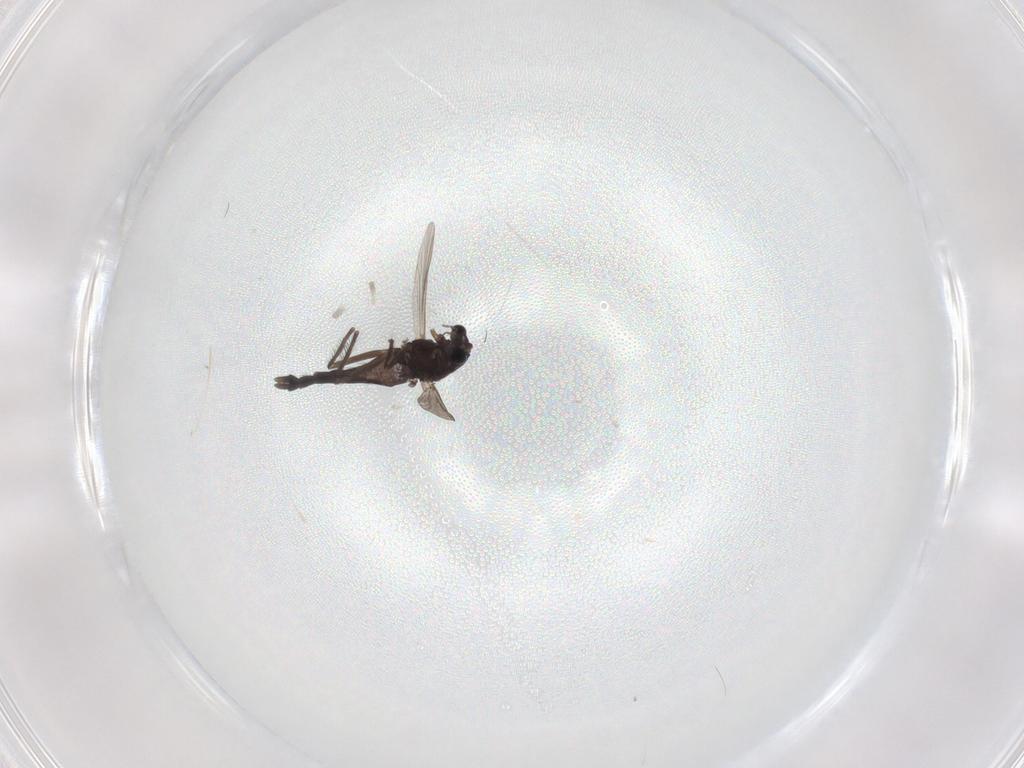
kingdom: Animalia
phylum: Arthropoda
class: Insecta
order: Diptera
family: Chironomidae
